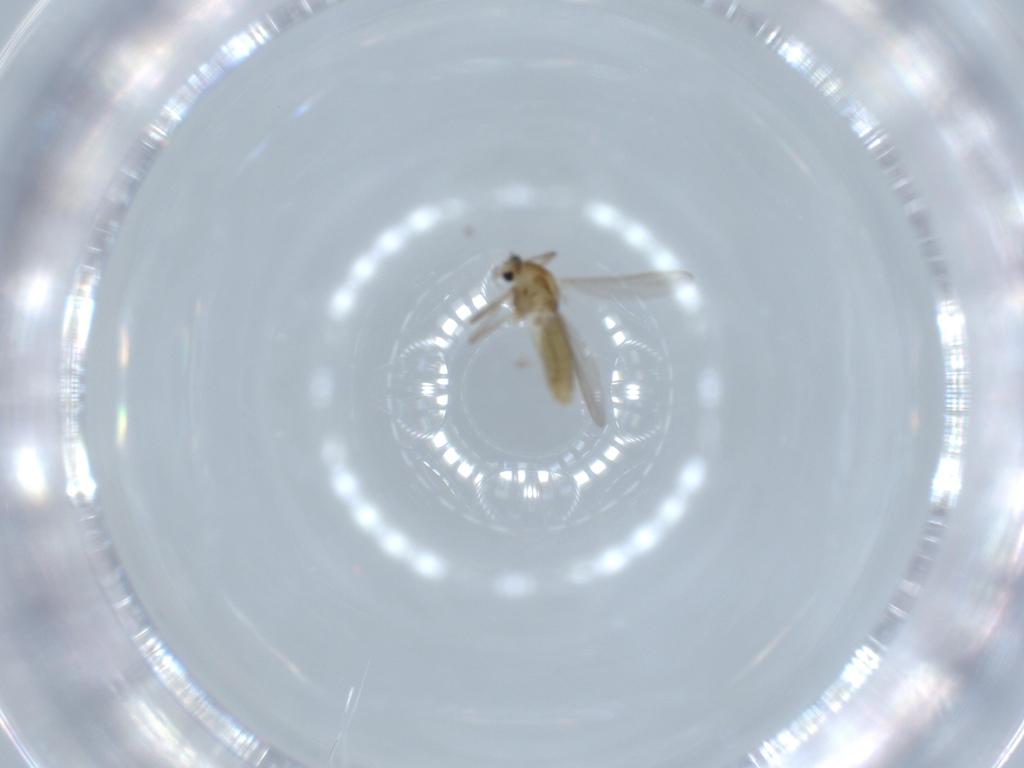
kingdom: Animalia
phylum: Arthropoda
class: Insecta
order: Diptera
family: Chironomidae
